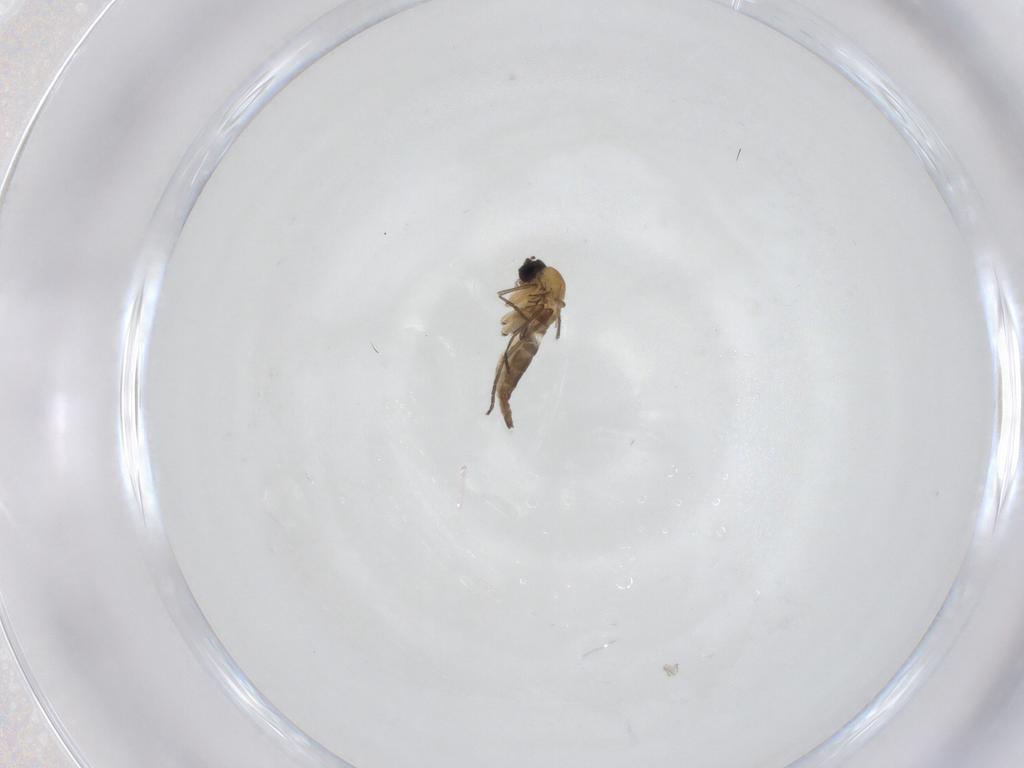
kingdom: Animalia
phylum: Arthropoda
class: Insecta
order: Diptera
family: Sciaridae
